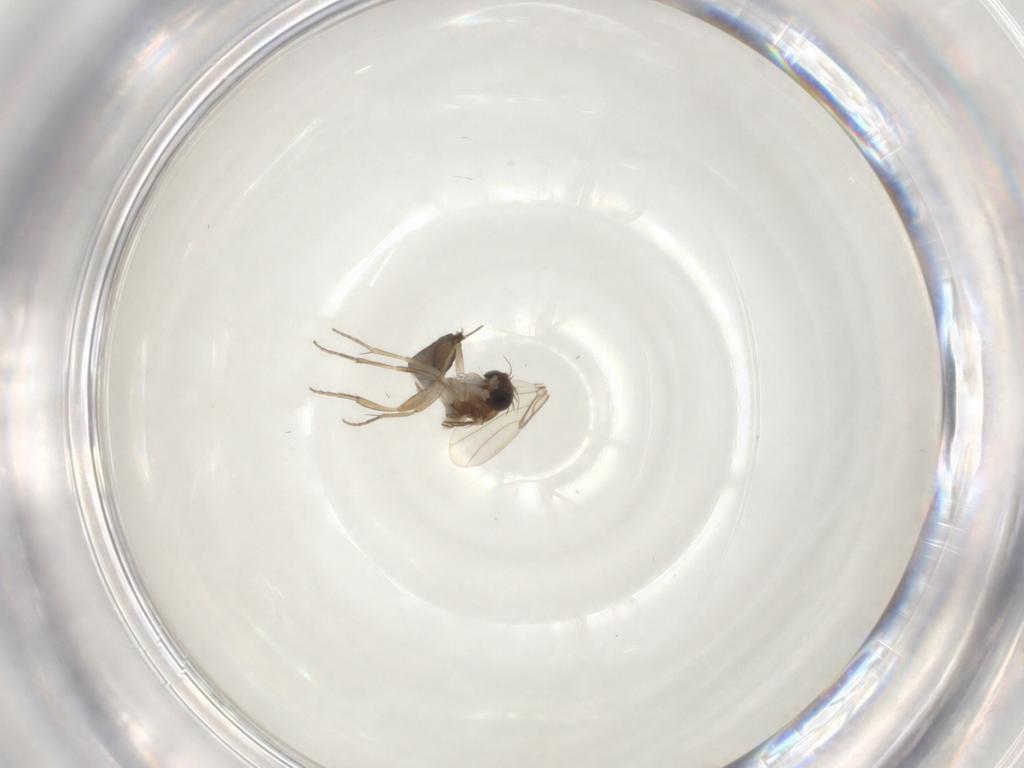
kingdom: Animalia
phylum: Arthropoda
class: Insecta
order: Diptera
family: Phoridae
